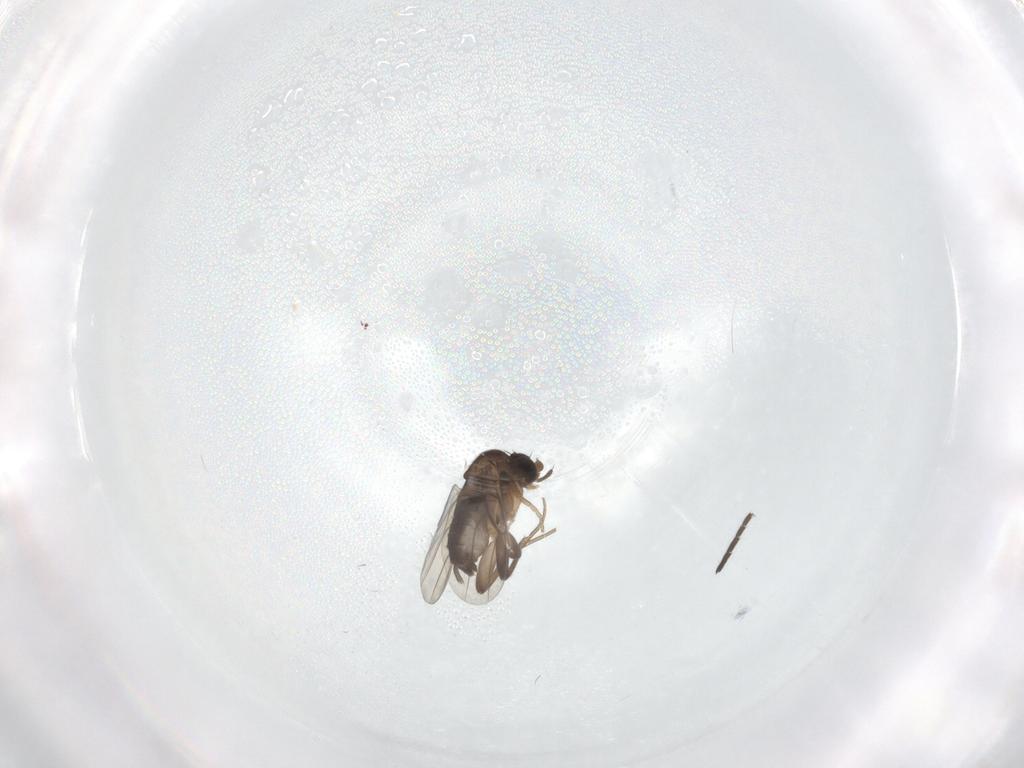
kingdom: Animalia
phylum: Arthropoda
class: Insecta
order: Diptera
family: Phoridae
